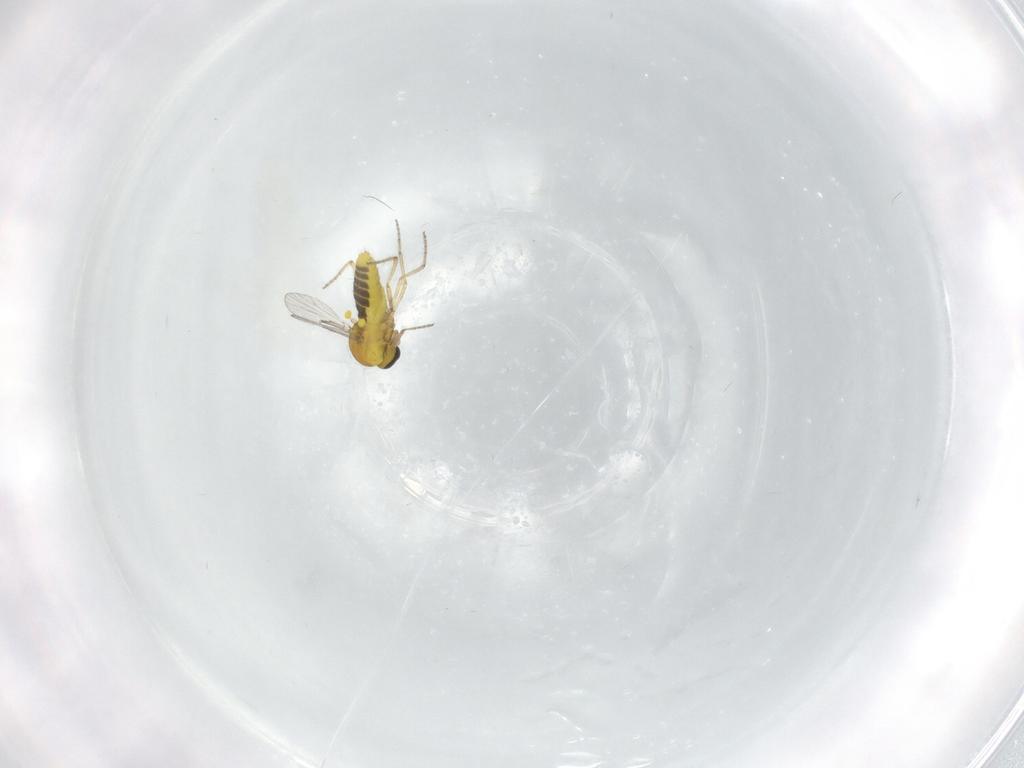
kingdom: Animalia
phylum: Arthropoda
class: Insecta
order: Diptera
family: Ceratopogonidae
